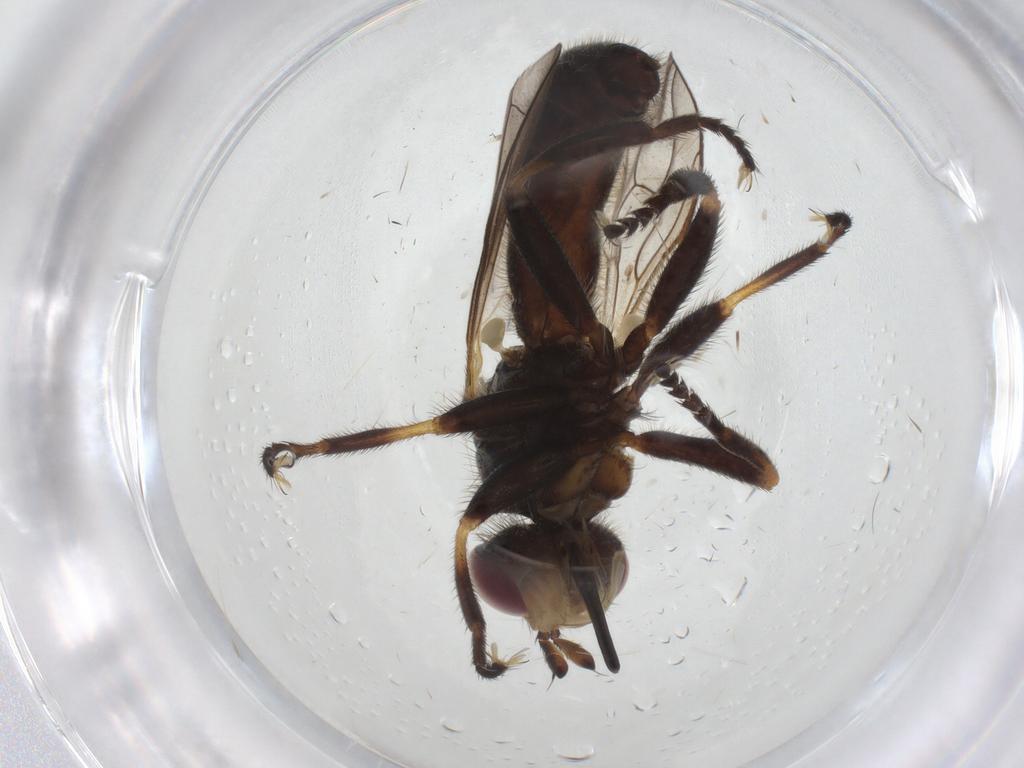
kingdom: Animalia
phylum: Arthropoda
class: Insecta
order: Diptera
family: Conopidae
